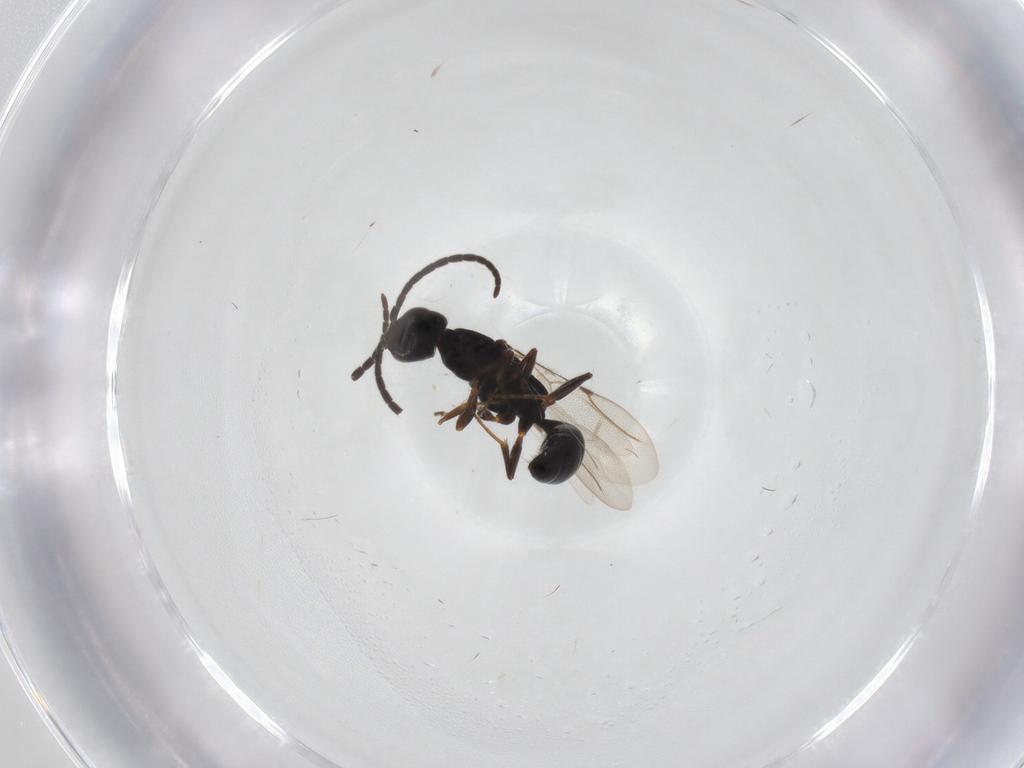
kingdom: Animalia
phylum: Arthropoda
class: Insecta
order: Hymenoptera
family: Bethylidae
